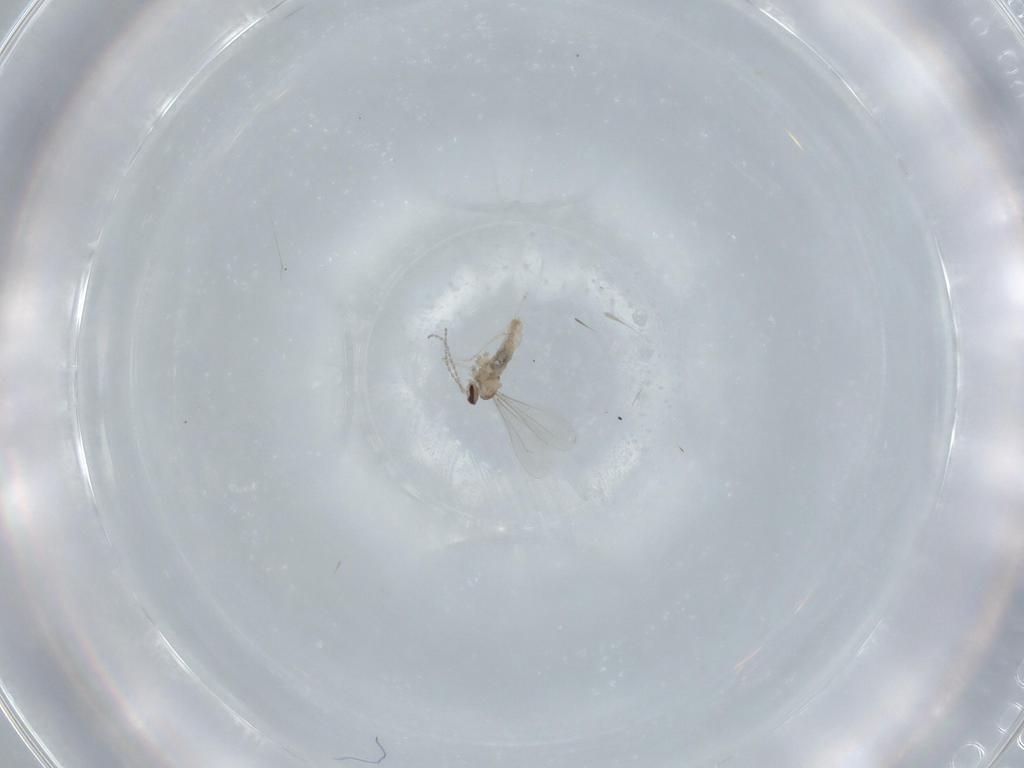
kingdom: Animalia
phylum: Arthropoda
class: Insecta
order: Diptera
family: Cecidomyiidae
